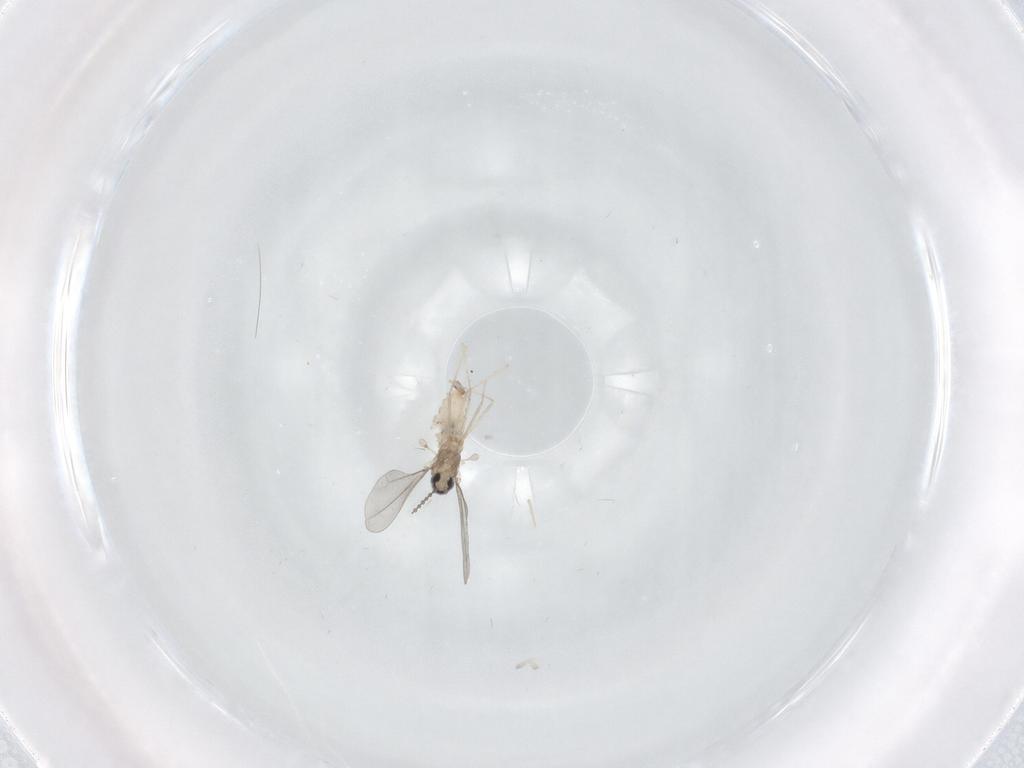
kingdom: Animalia
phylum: Arthropoda
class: Insecta
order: Diptera
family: Cecidomyiidae
